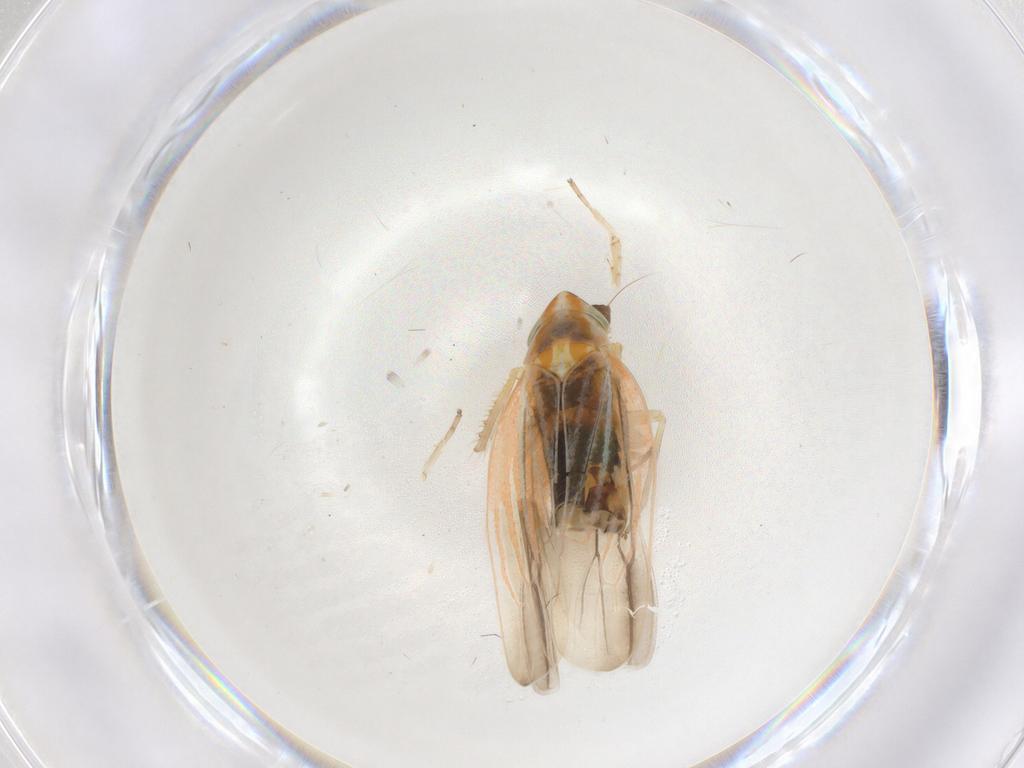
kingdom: Animalia
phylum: Arthropoda
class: Insecta
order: Hemiptera
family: Cicadellidae
